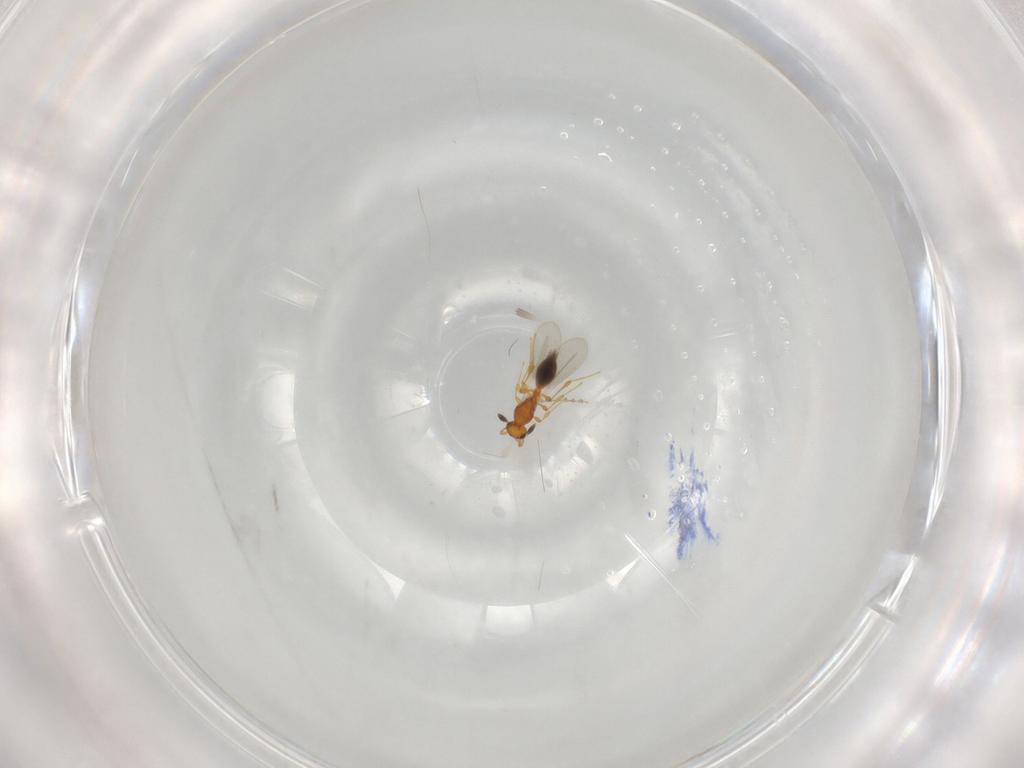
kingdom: Animalia
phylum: Arthropoda
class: Insecta
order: Hymenoptera
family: Platygastridae
